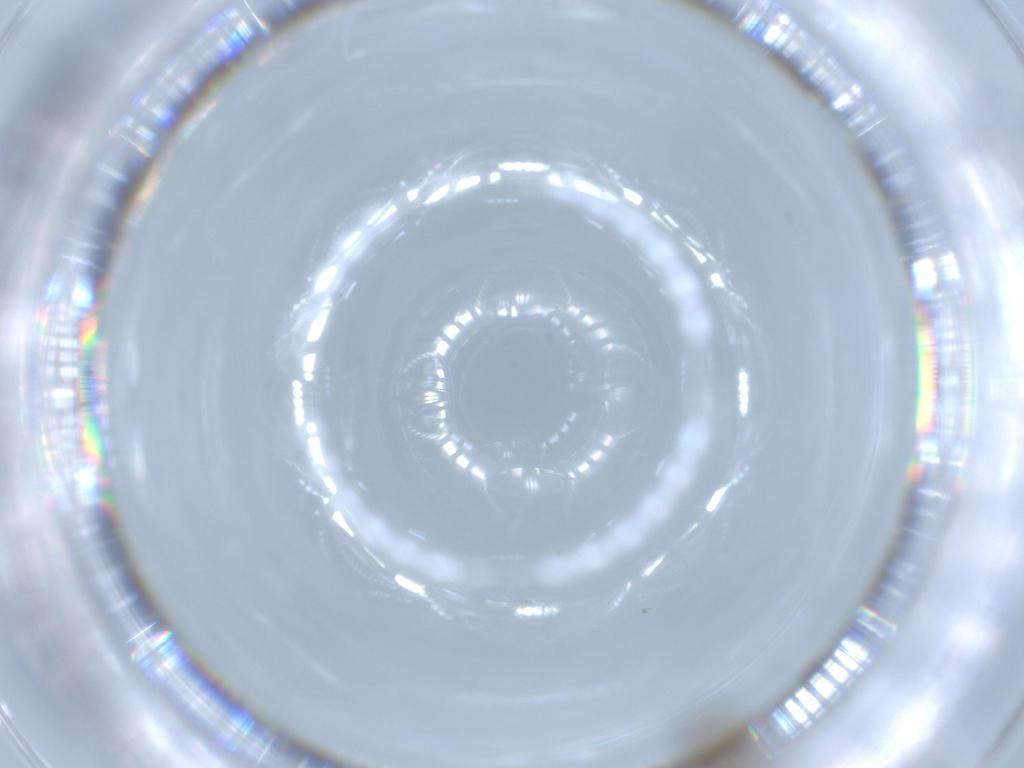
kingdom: Animalia
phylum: Arthropoda
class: Insecta
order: Diptera
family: Chironomidae
